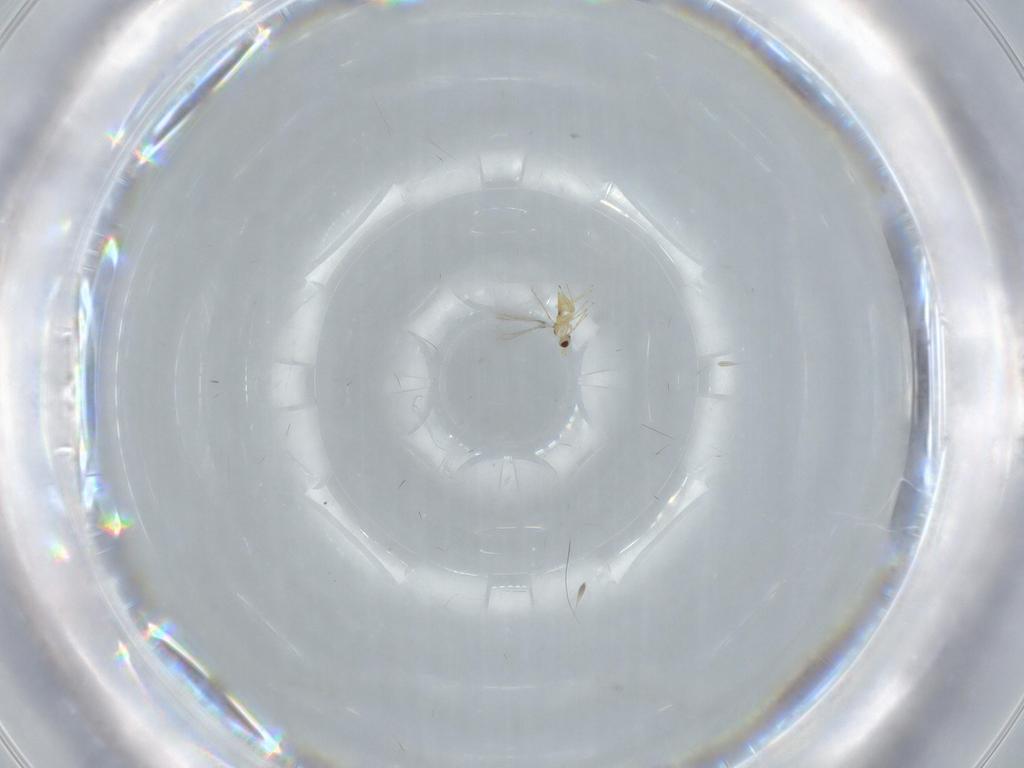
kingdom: Animalia
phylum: Arthropoda
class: Insecta
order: Hymenoptera
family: Mymaridae
